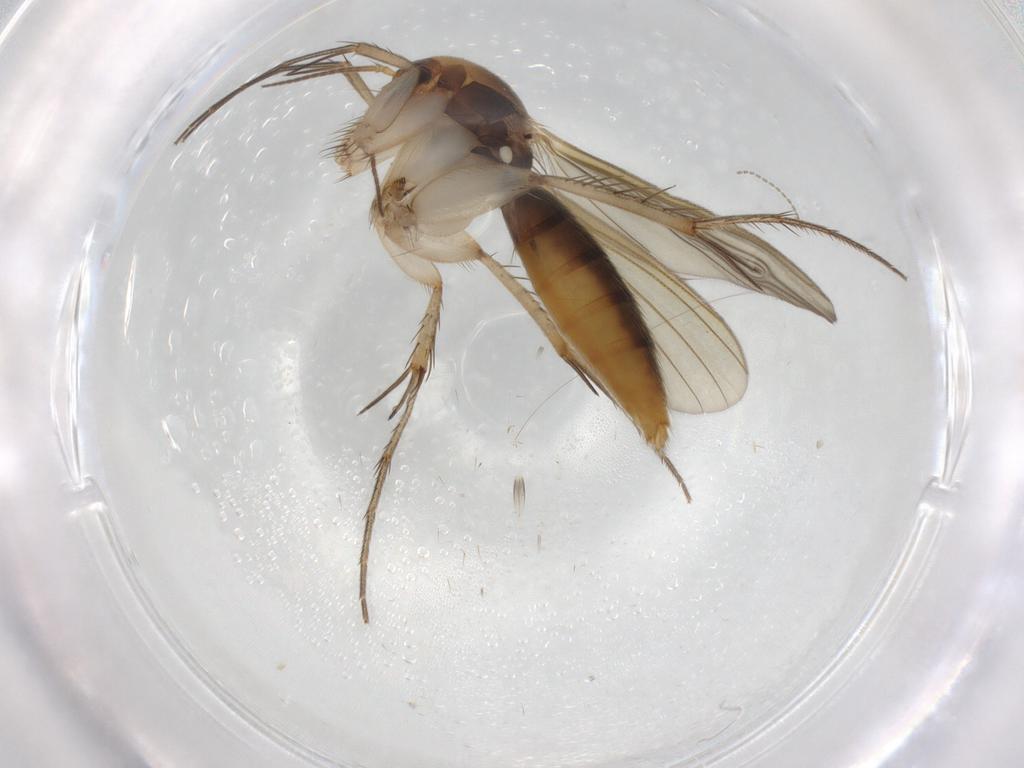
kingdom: Animalia
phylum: Arthropoda
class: Insecta
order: Diptera
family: Mycetophilidae
